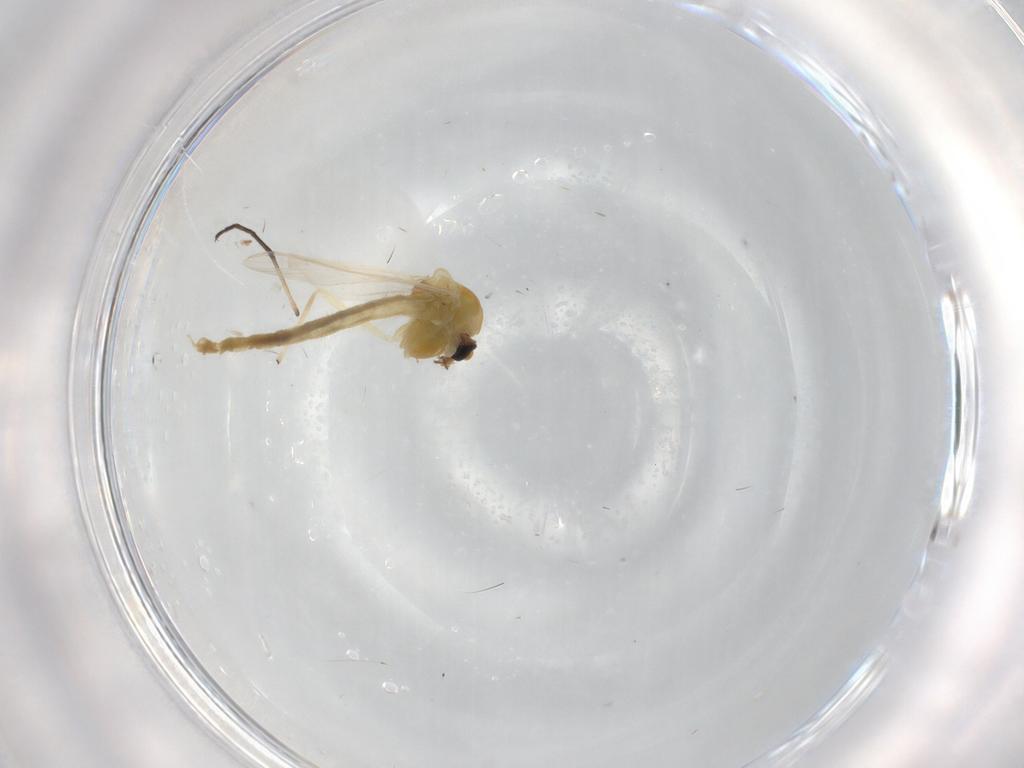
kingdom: Animalia
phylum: Arthropoda
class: Insecta
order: Diptera
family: Chironomidae
